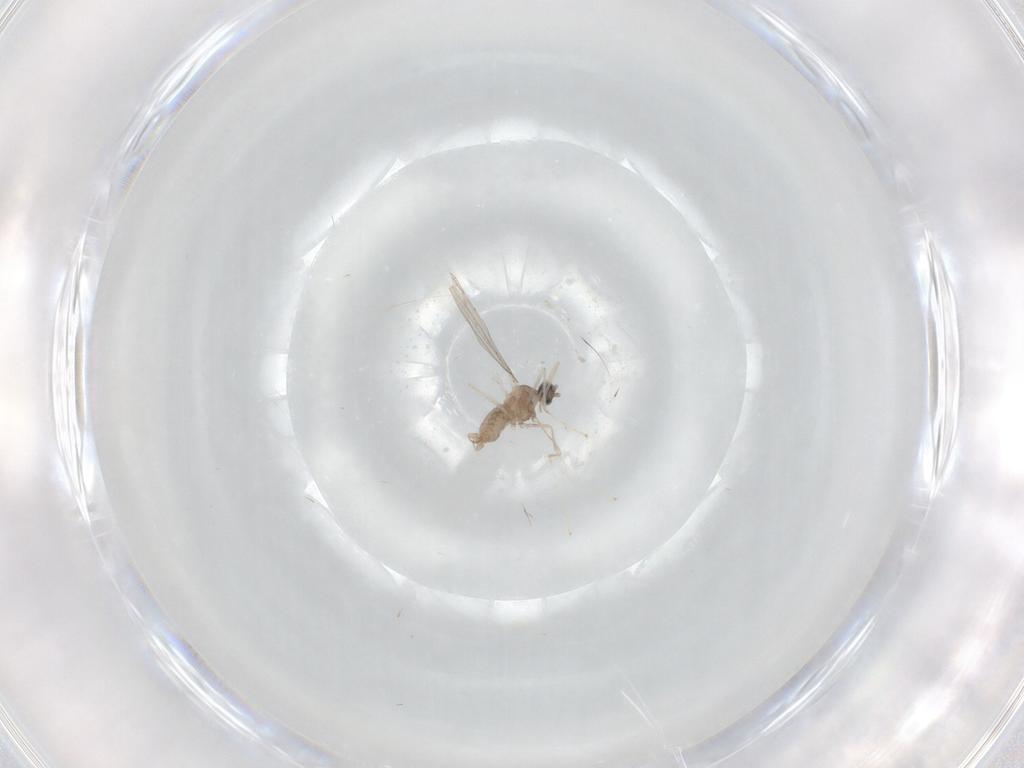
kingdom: Animalia
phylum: Arthropoda
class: Insecta
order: Diptera
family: Cecidomyiidae
